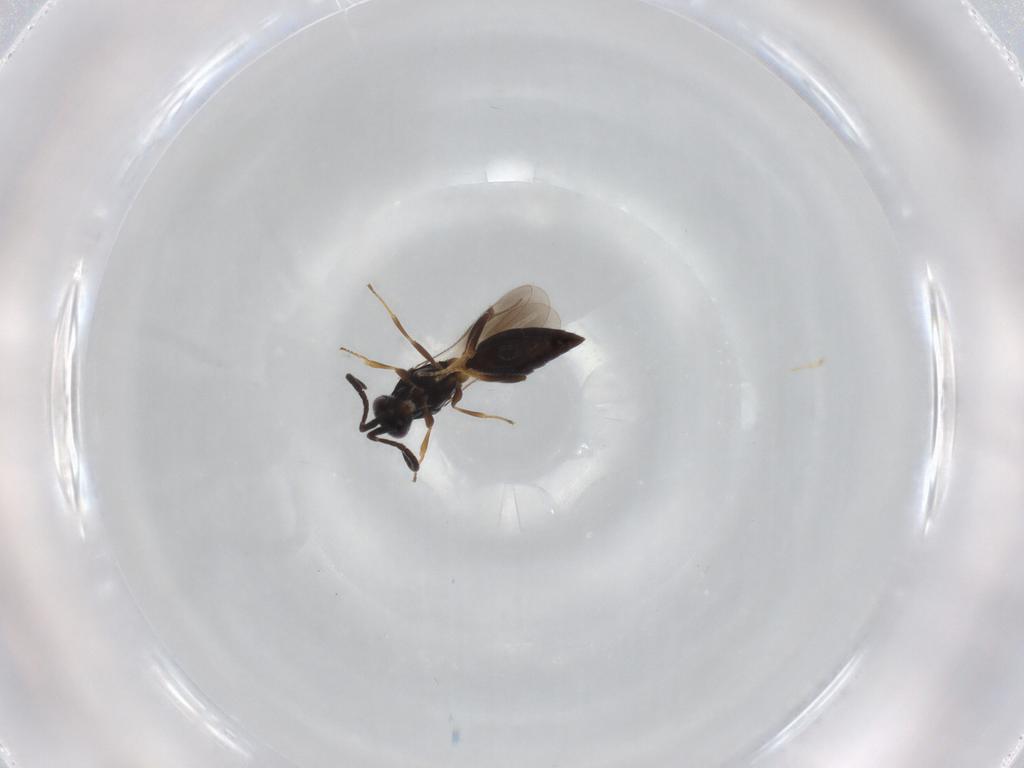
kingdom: Animalia
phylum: Arthropoda
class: Insecta
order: Hymenoptera
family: Megaspilidae
